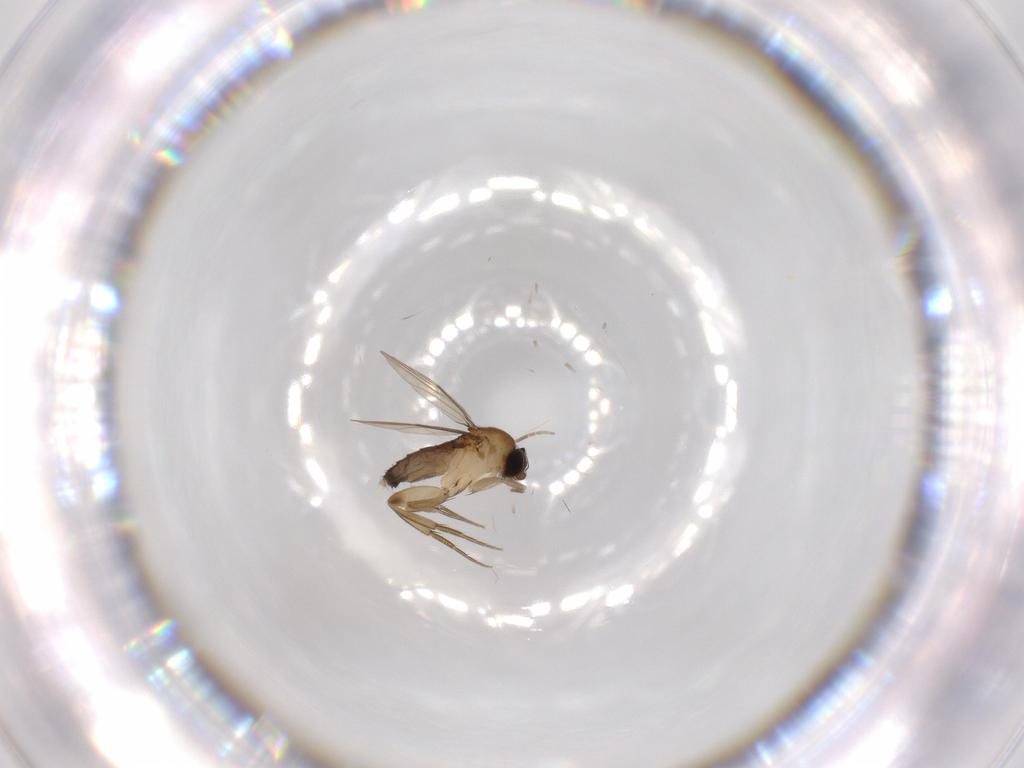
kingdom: Animalia
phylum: Arthropoda
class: Insecta
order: Diptera
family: Phoridae
